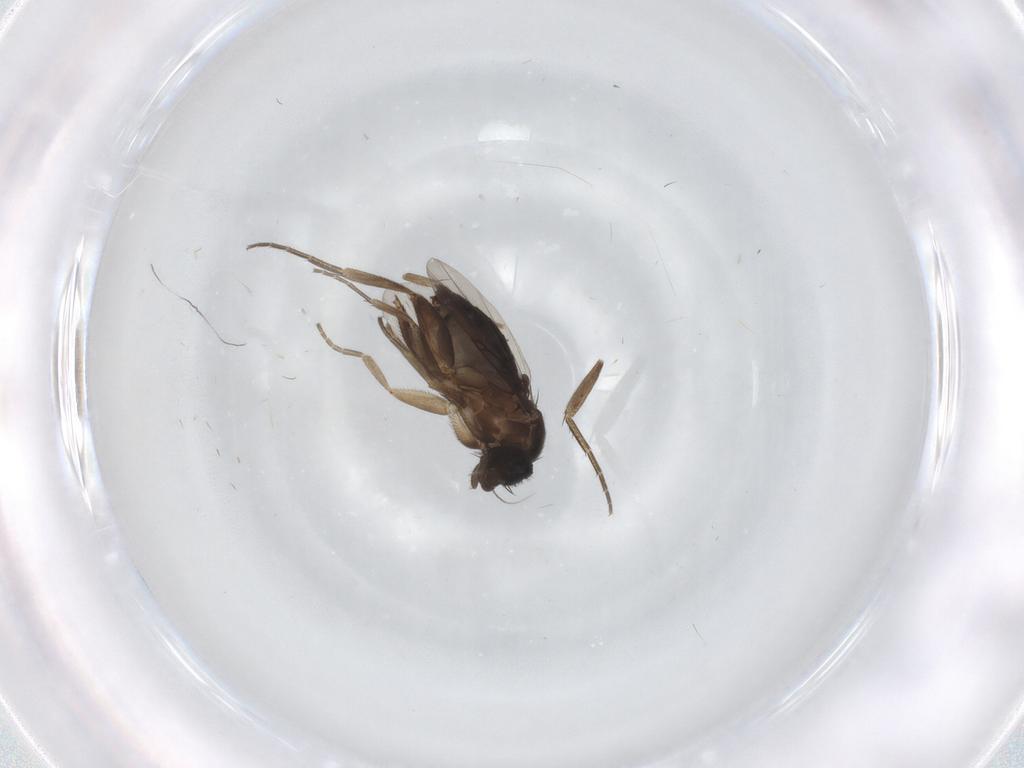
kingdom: Animalia
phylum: Arthropoda
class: Insecta
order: Diptera
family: Phoridae
